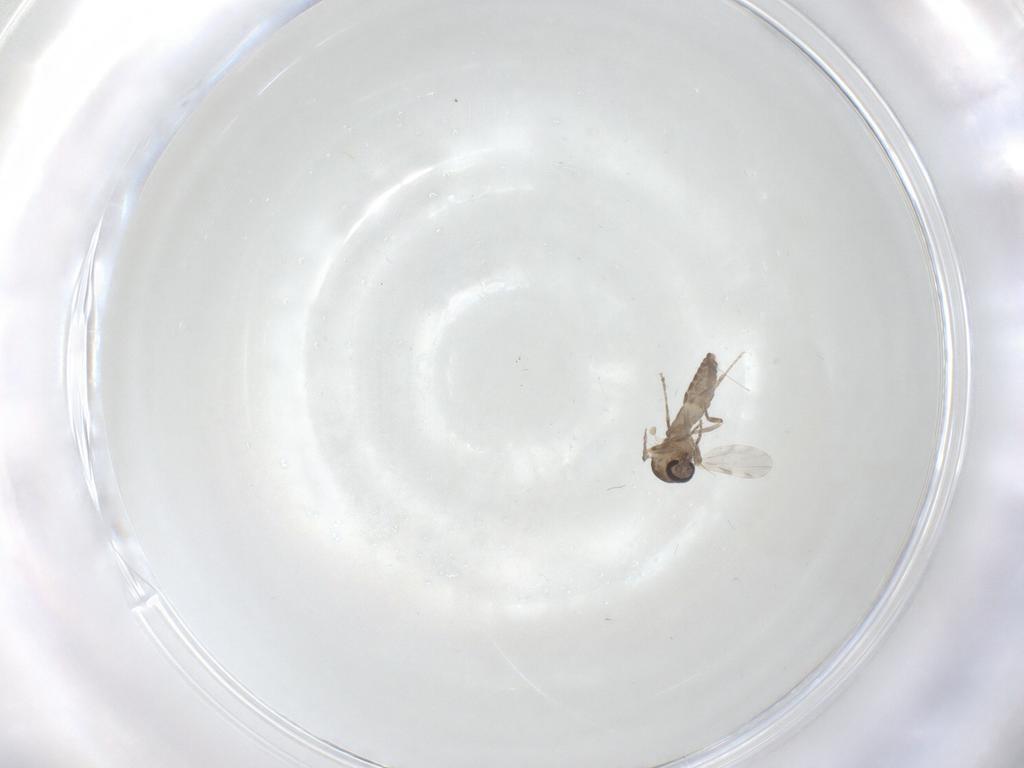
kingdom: Animalia
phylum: Arthropoda
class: Insecta
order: Diptera
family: Ceratopogonidae
